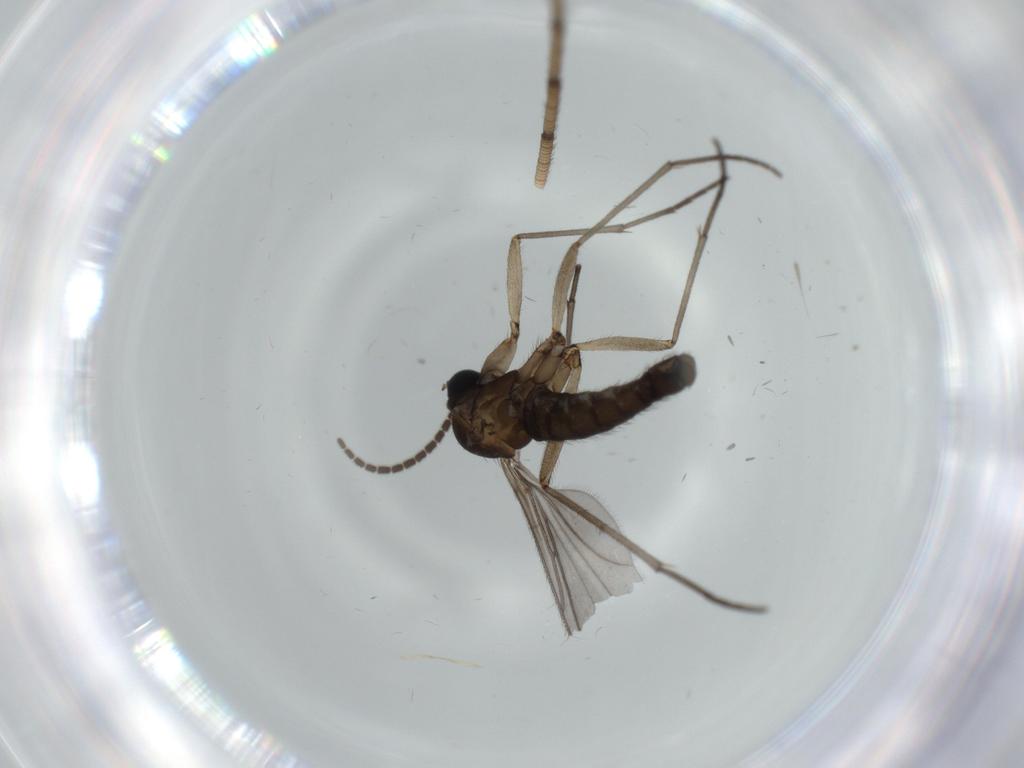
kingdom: Animalia
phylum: Arthropoda
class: Insecta
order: Diptera
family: Sciaridae
